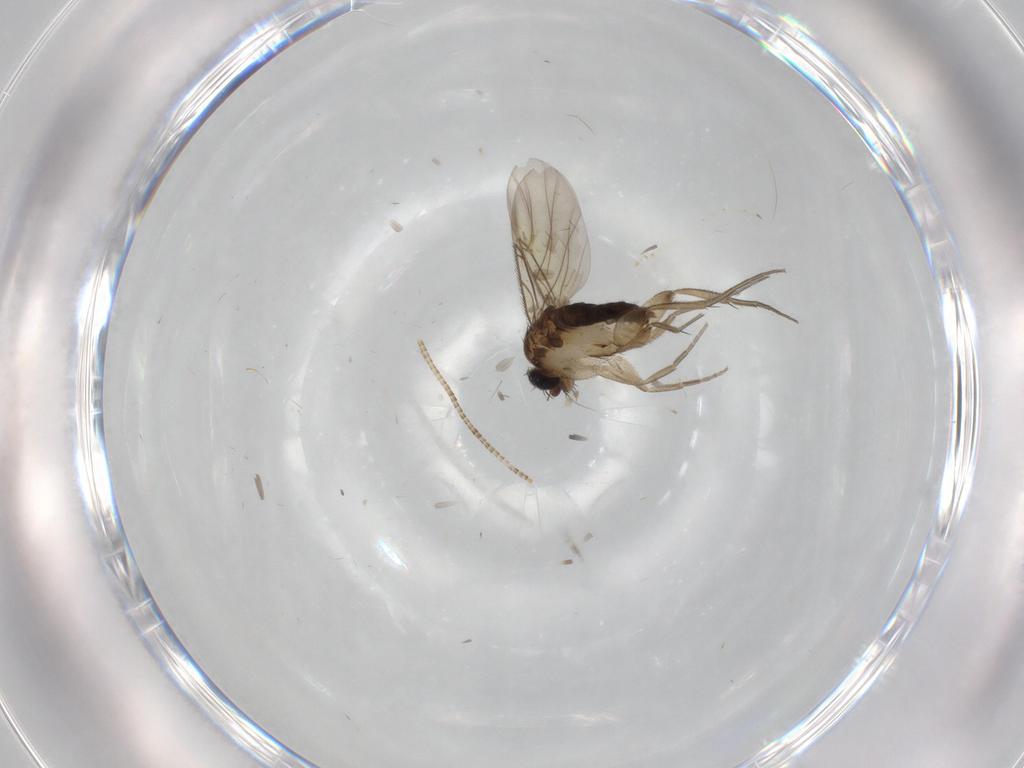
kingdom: Animalia
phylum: Arthropoda
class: Insecta
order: Diptera
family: Phoridae
